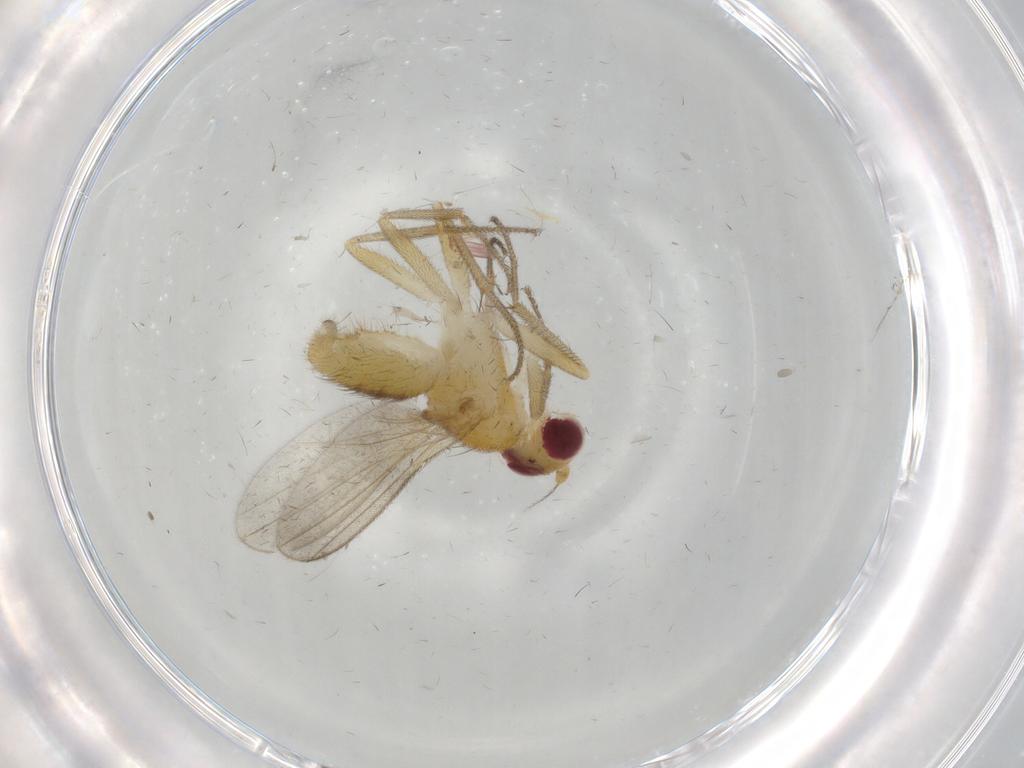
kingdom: Animalia
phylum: Arthropoda
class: Insecta
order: Diptera
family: Clusiidae
